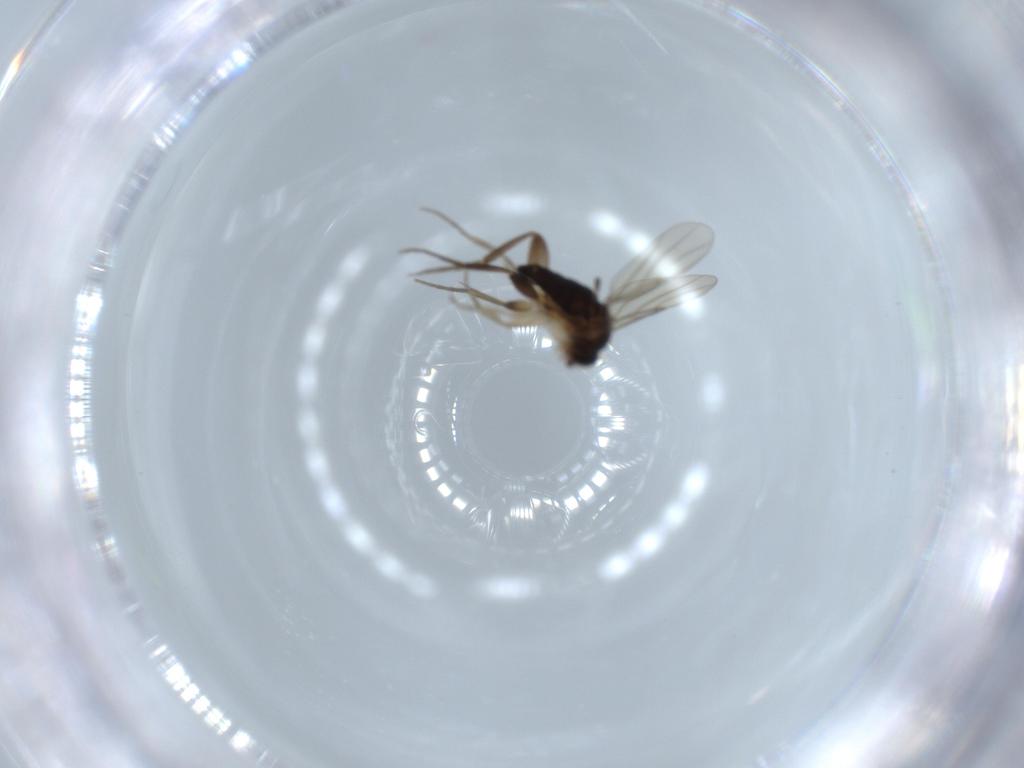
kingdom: Animalia
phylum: Arthropoda
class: Insecta
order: Diptera
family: Phoridae
